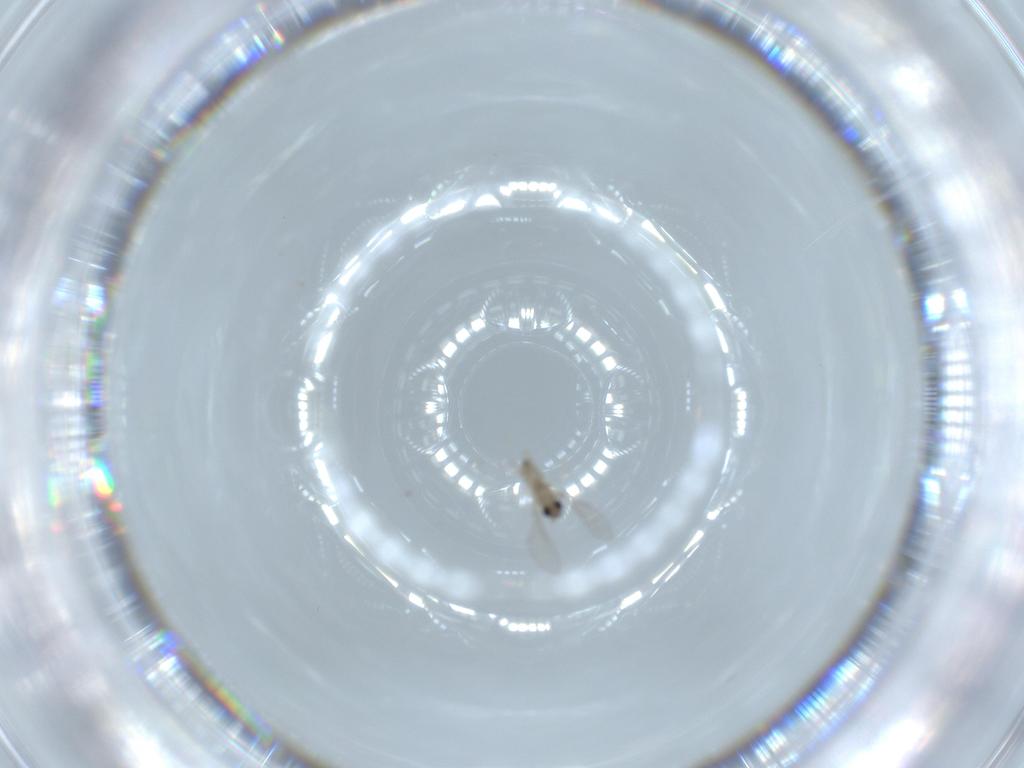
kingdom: Animalia
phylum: Arthropoda
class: Insecta
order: Diptera
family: Cecidomyiidae
